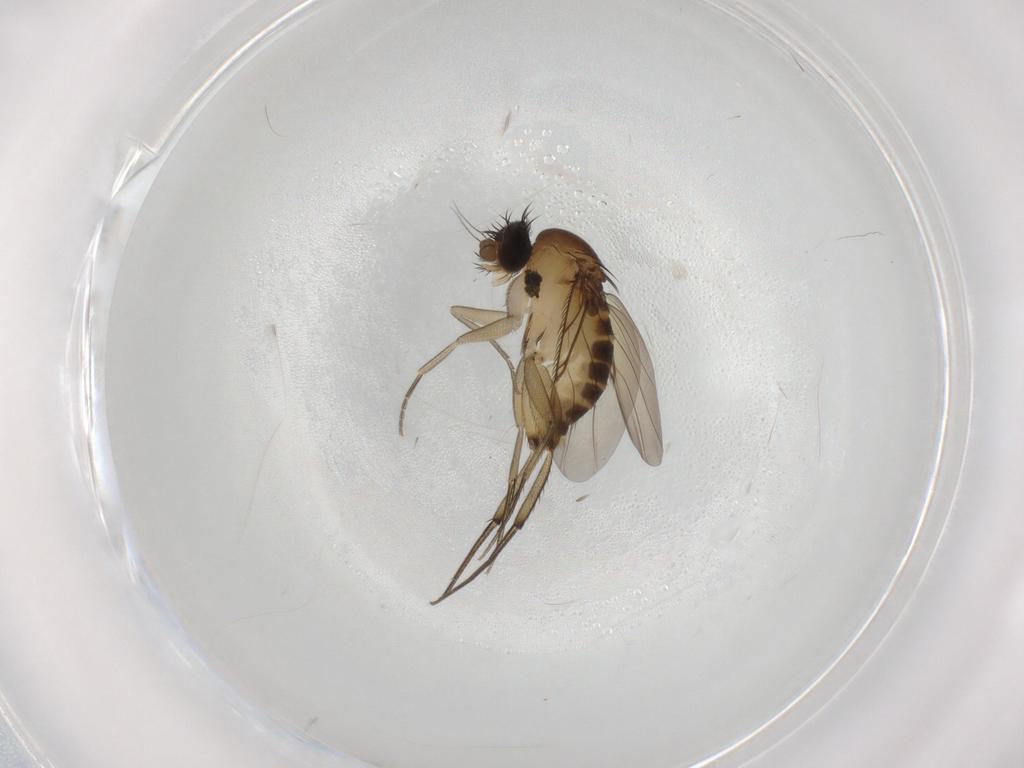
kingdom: Animalia
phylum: Arthropoda
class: Insecta
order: Diptera
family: Phoridae
